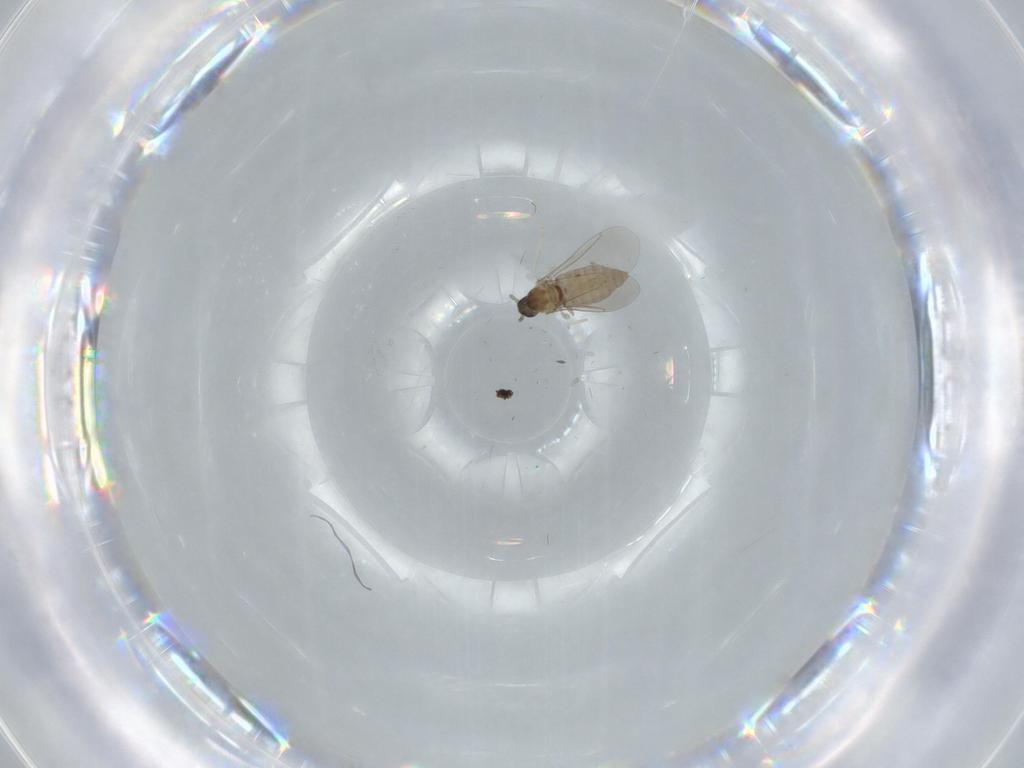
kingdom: Animalia
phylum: Arthropoda
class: Insecta
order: Diptera
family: Cecidomyiidae
